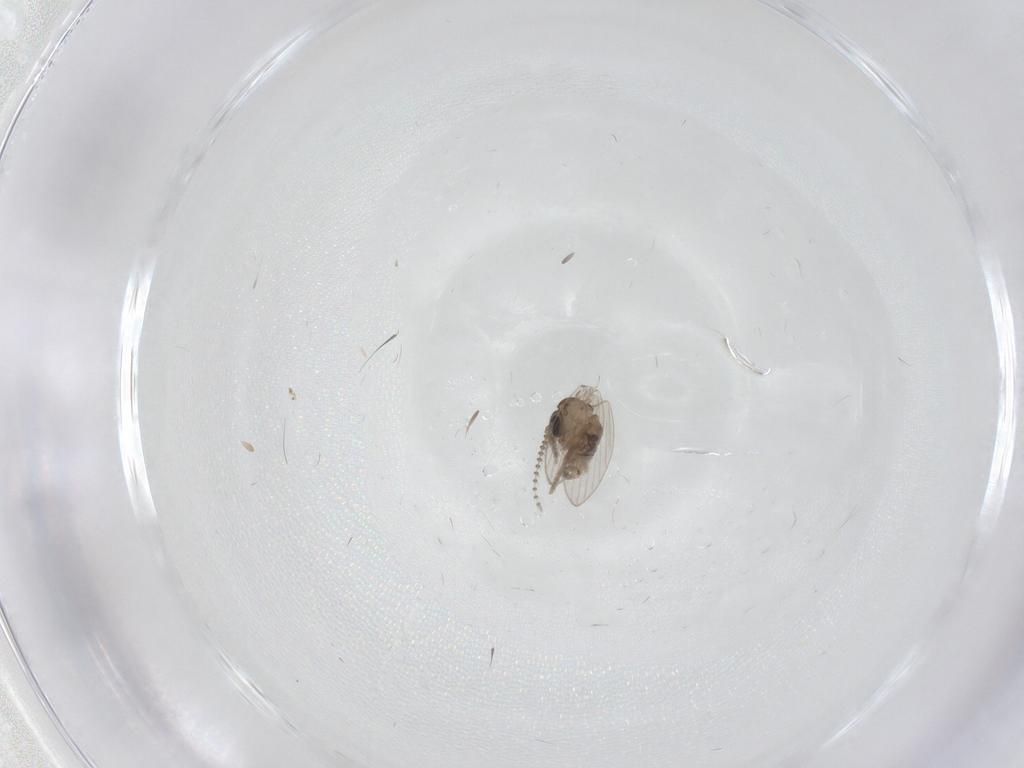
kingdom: Animalia
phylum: Arthropoda
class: Insecta
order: Diptera
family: Psychodidae
